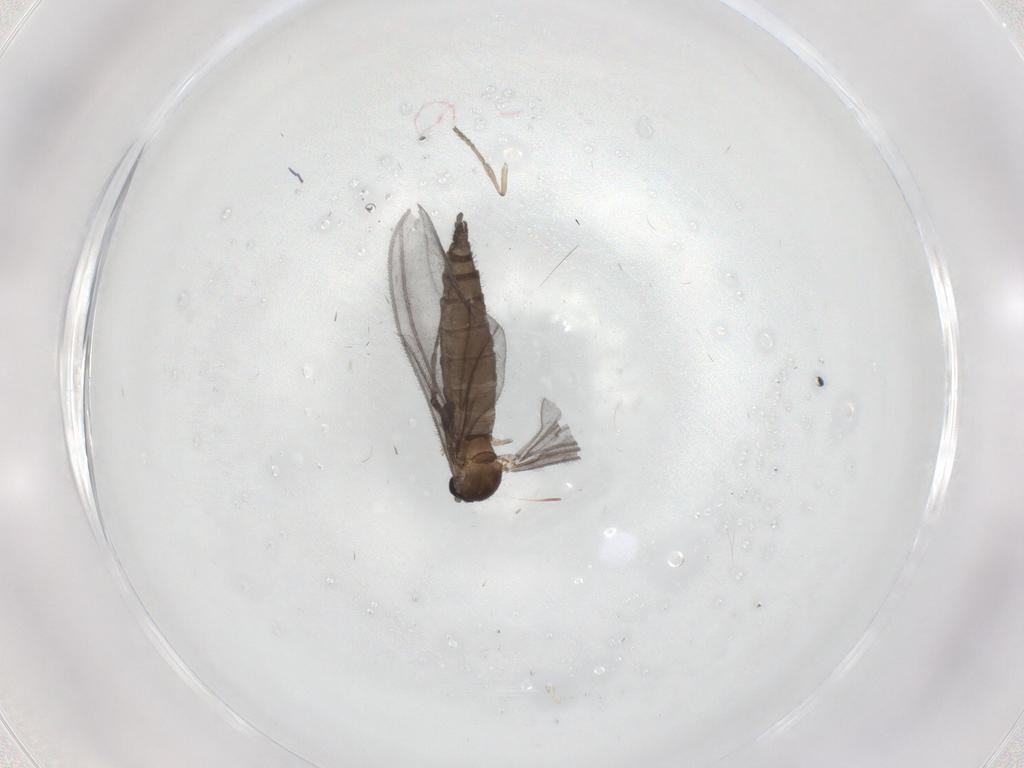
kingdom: Animalia
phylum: Arthropoda
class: Insecta
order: Diptera
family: Sciaridae
